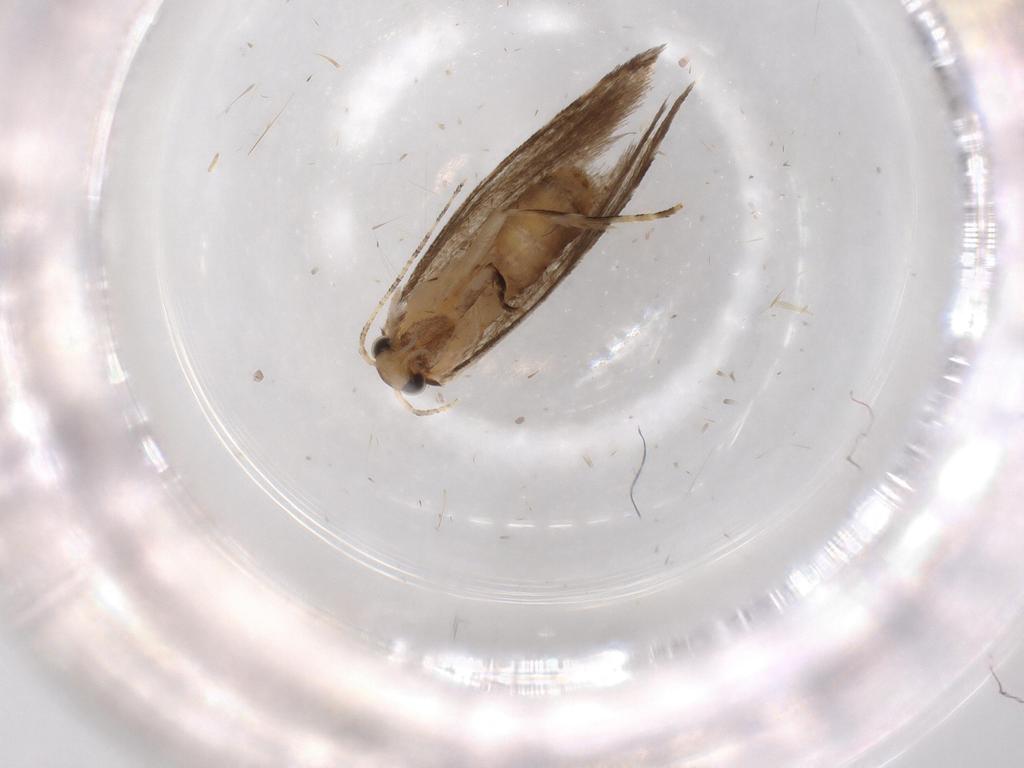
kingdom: Animalia
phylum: Arthropoda
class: Insecta
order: Lepidoptera
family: Tineidae
